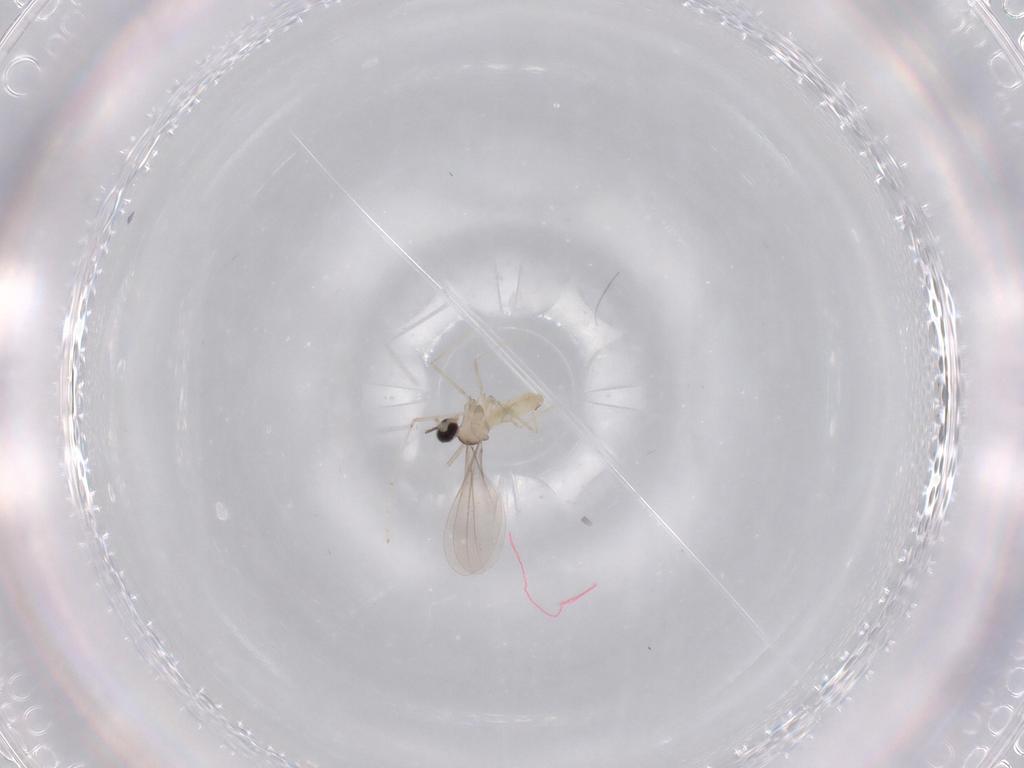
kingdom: Animalia
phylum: Arthropoda
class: Insecta
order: Diptera
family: Cecidomyiidae
